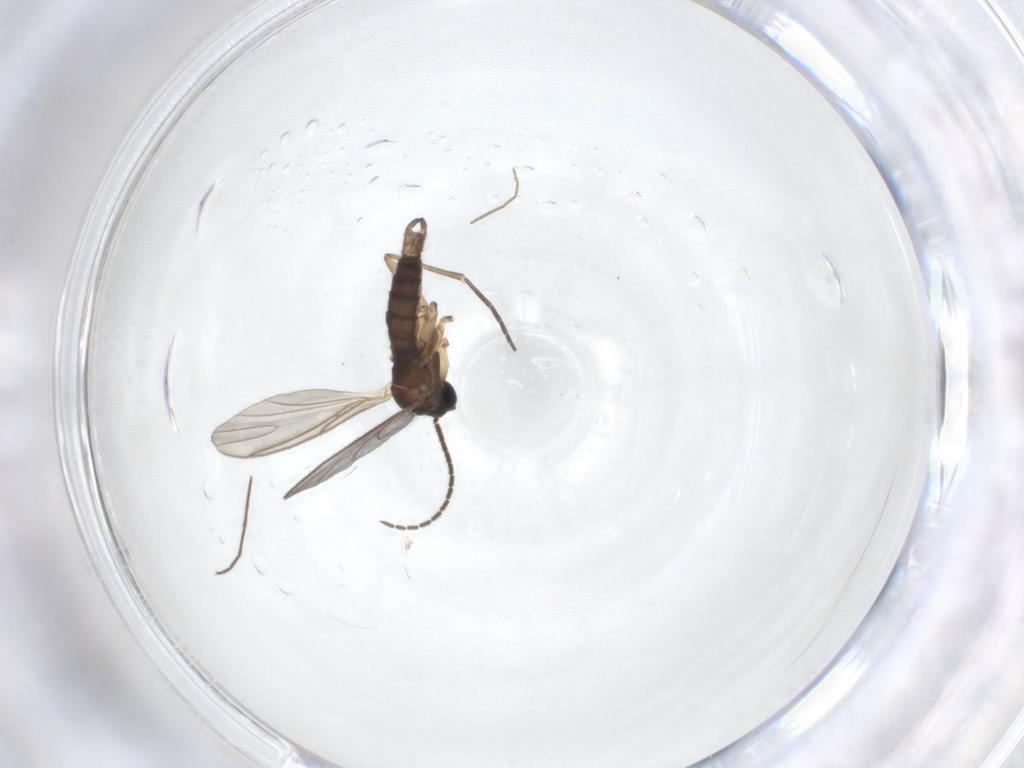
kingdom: Animalia
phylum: Arthropoda
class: Insecta
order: Diptera
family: Sciaridae
